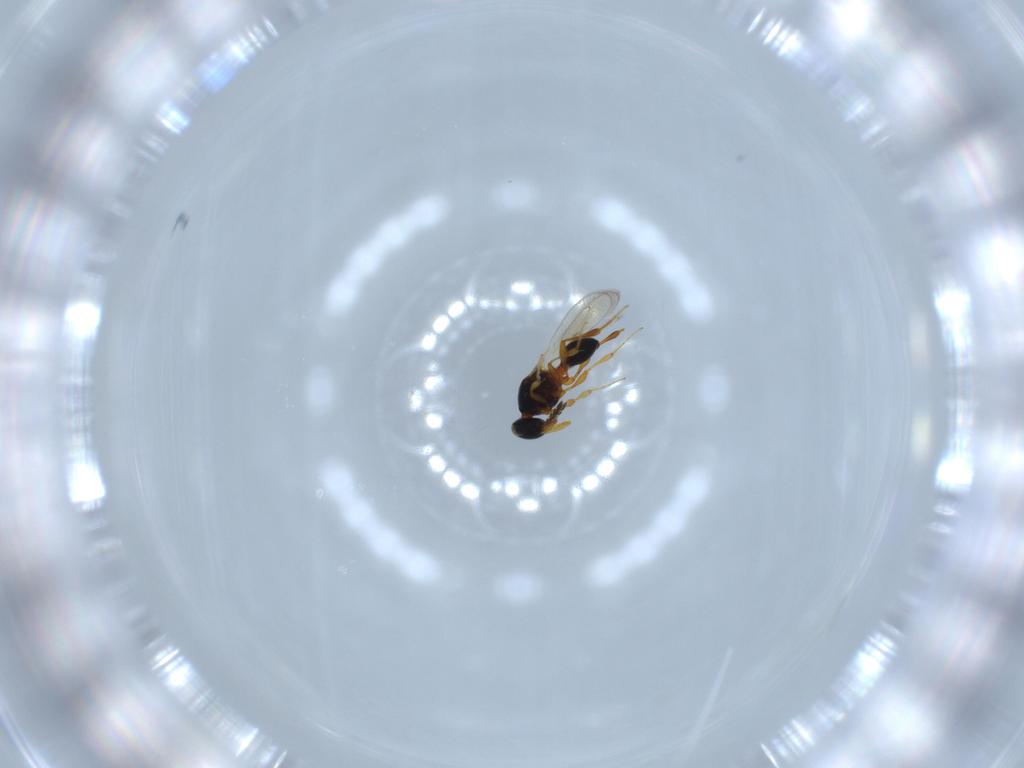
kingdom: Animalia
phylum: Arthropoda
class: Insecta
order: Hymenoptera
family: Platygastridae
